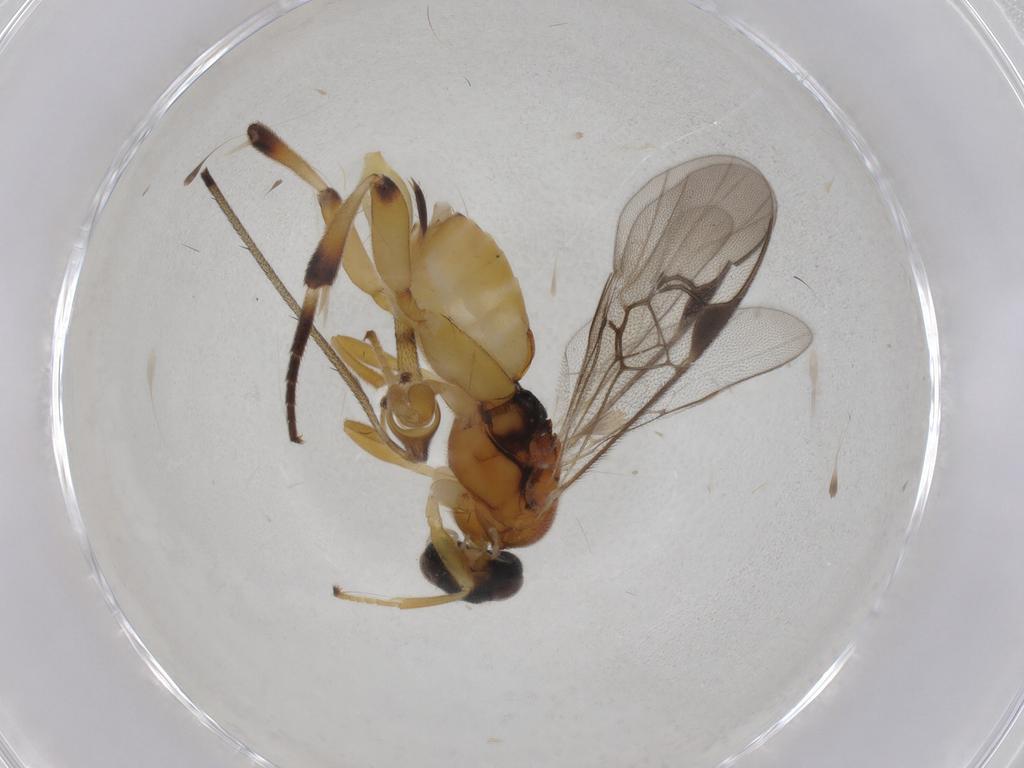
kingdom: Animalia
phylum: Arthropoda
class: Insecta
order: Hymenoptera
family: Braconidae
